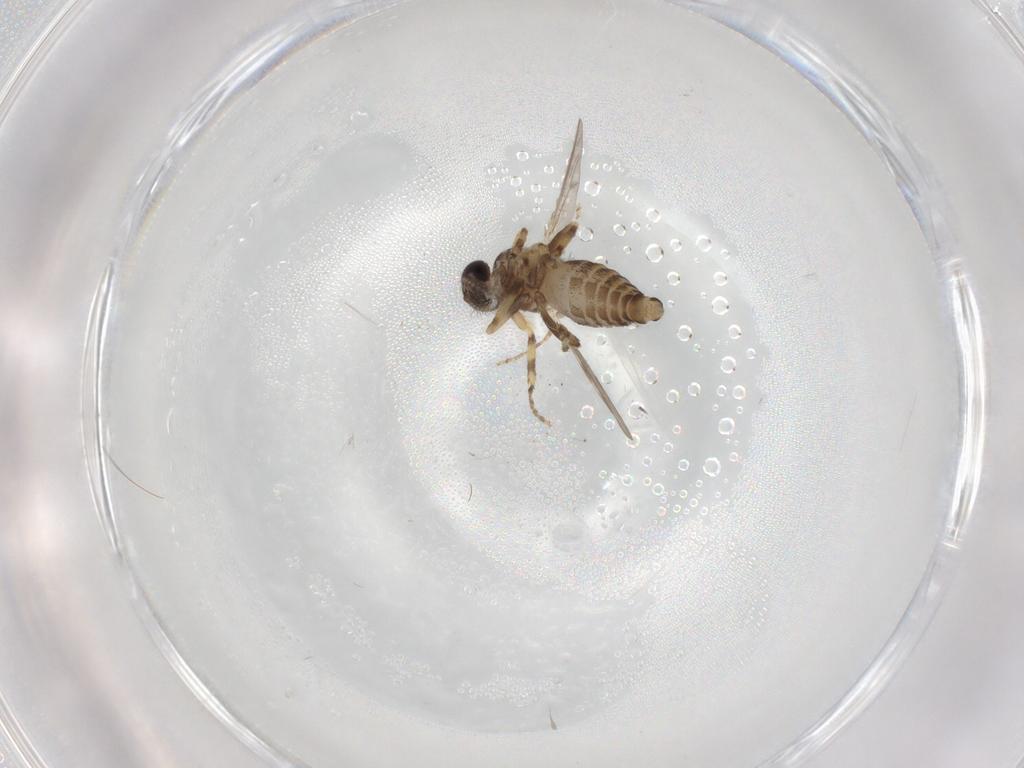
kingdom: Animalia
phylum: Arthropoda
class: Insecta
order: Diptera
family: Ceratopogonidae
